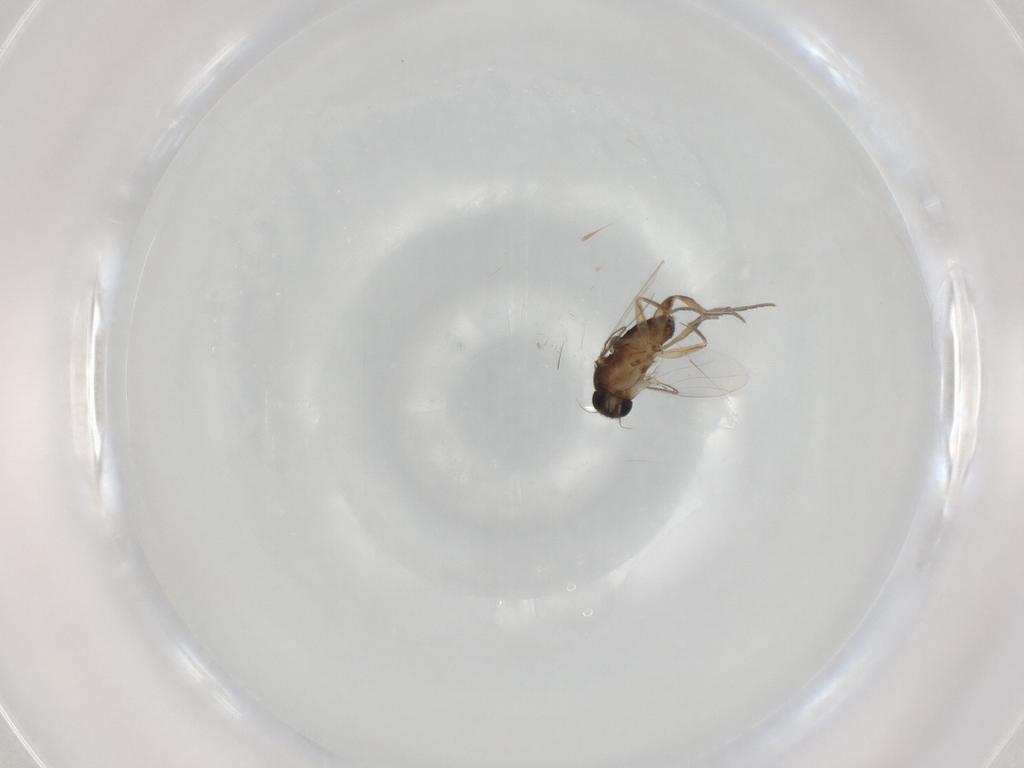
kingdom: Animalia
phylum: Arthropoda
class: Insecta
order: Diptera
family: Phoridae
